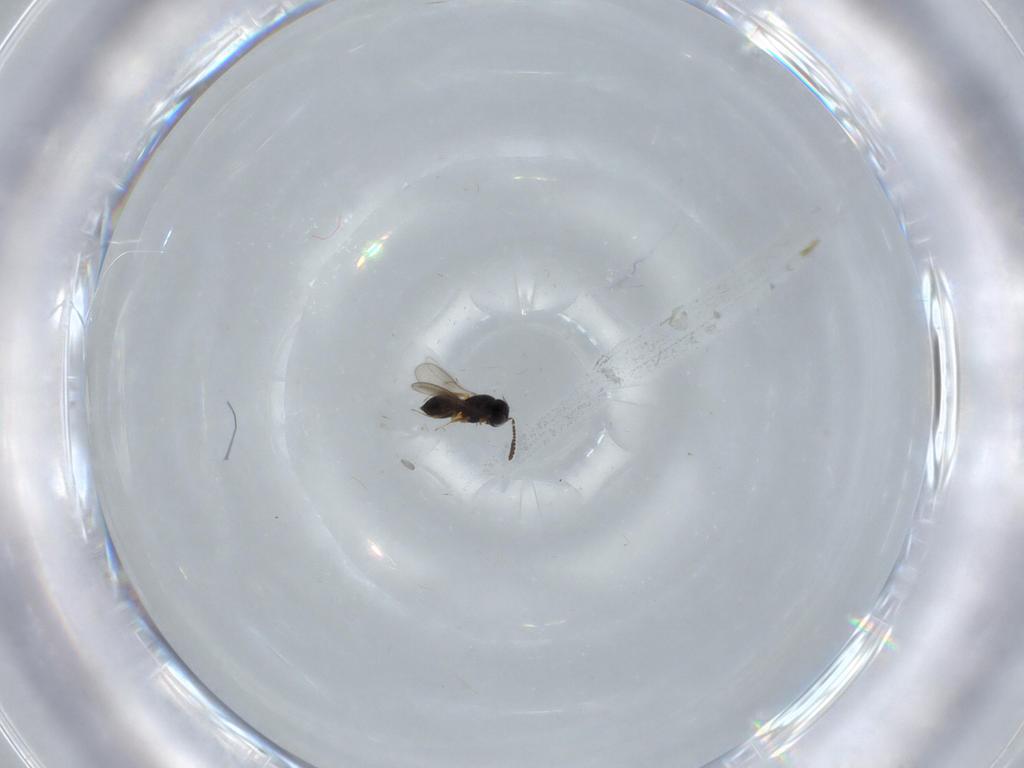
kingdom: Animalia
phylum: Arthropoda
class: Insecta
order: Hymenoptera
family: Scelionidae
